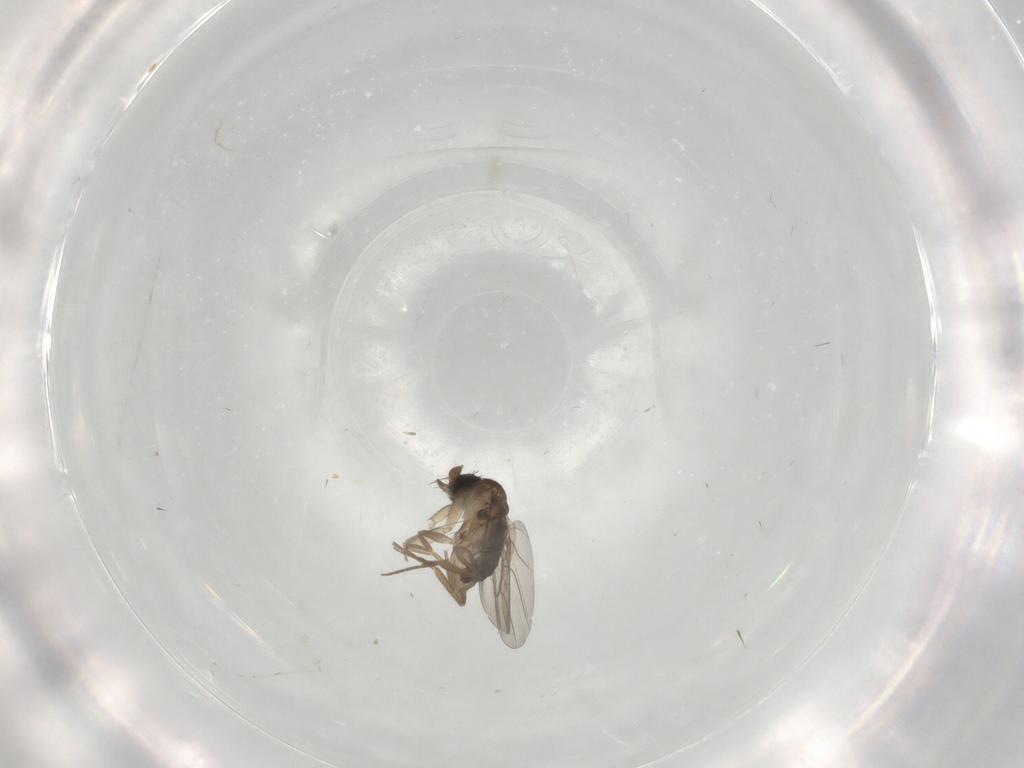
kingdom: Animalia
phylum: Arthropoda
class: Insecta
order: Diptera
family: Phoridae
